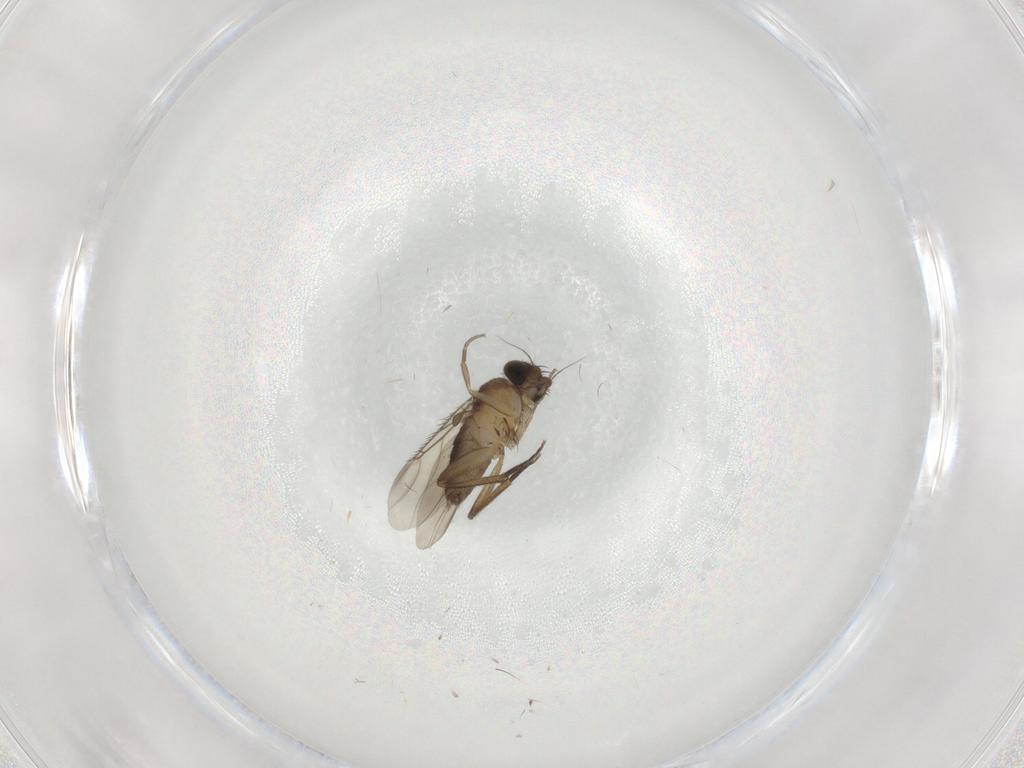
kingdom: Animalia
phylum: Arthropoda
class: Insecta
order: Diptera
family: Phoridae
